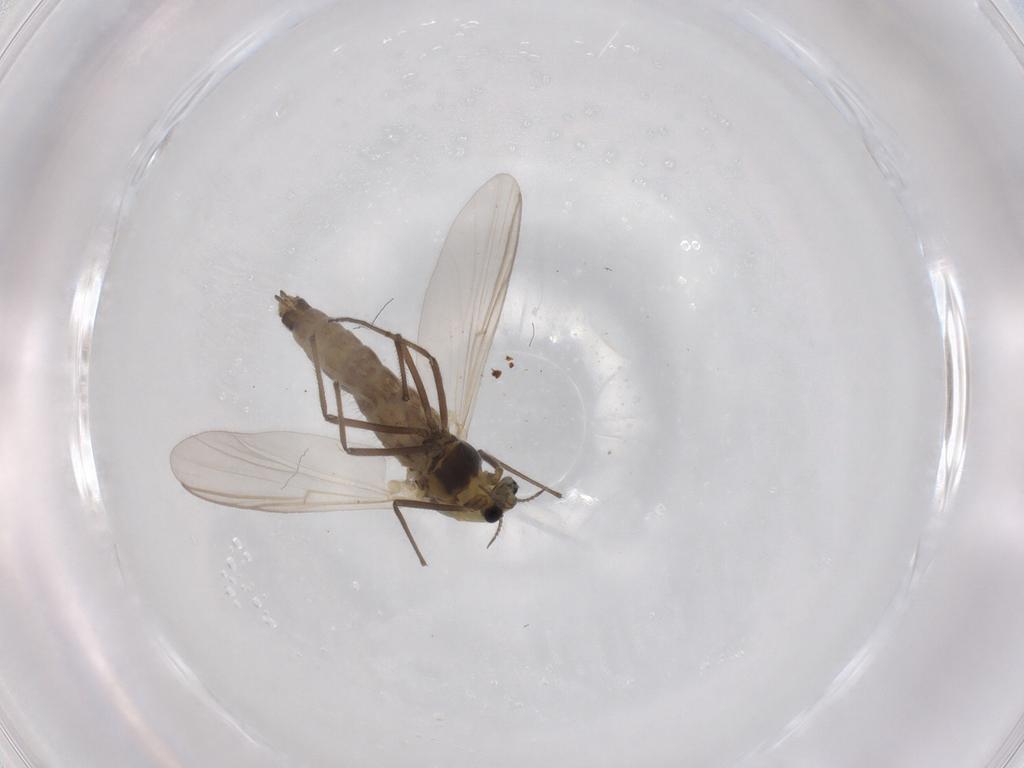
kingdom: Animalia
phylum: Arthropoda
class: Insecta
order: Diptera
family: Chironomidae
